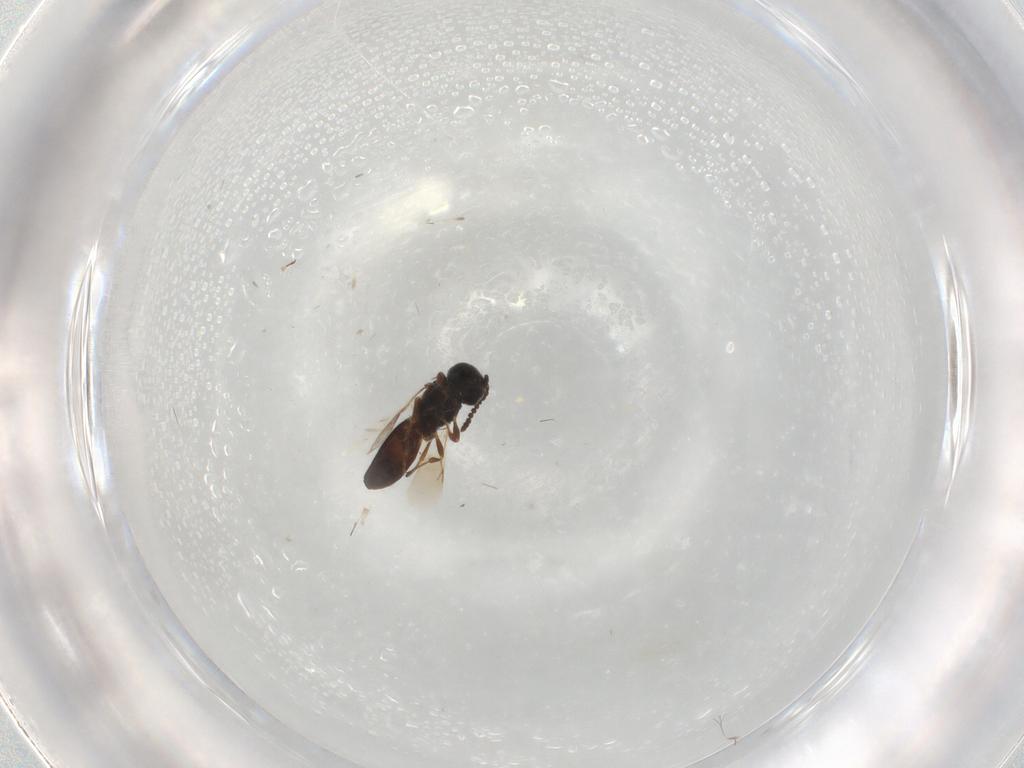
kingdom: Animalia
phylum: Arthropoda
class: Insecta
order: Hymenoptera
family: Scelionidae
